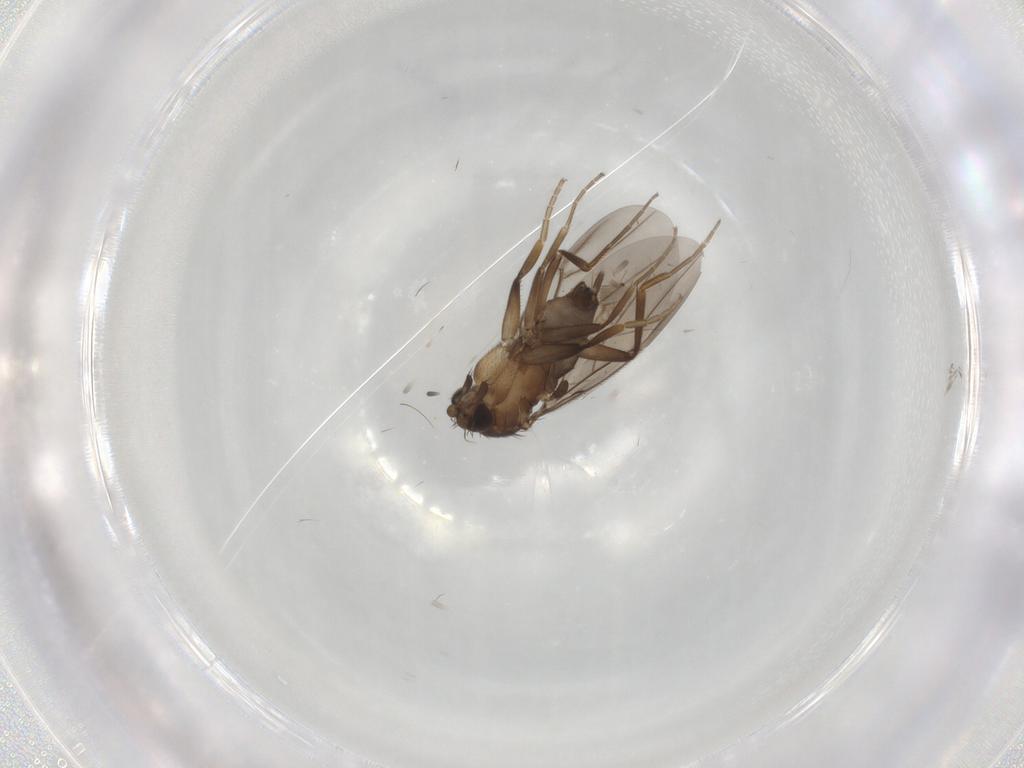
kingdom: Animalia
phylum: Arthropoda
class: Insecta
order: Diptera
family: Phoridae
